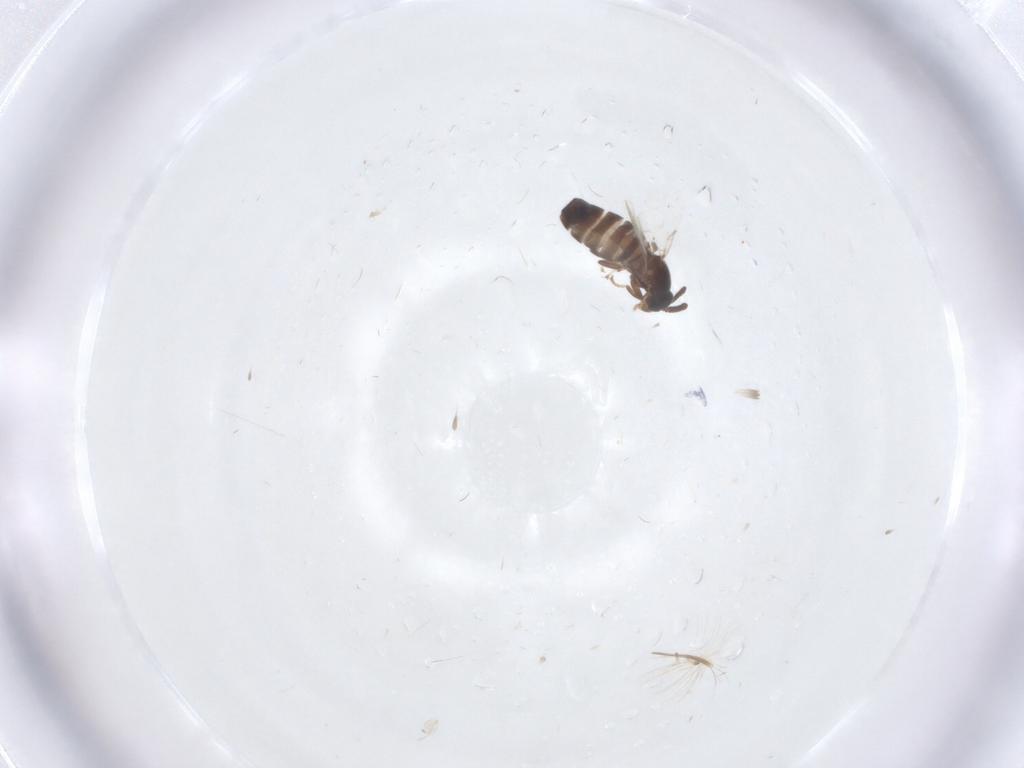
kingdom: Animalia
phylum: Arthropoda
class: Insecta
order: Diptera
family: Scatopsidae
